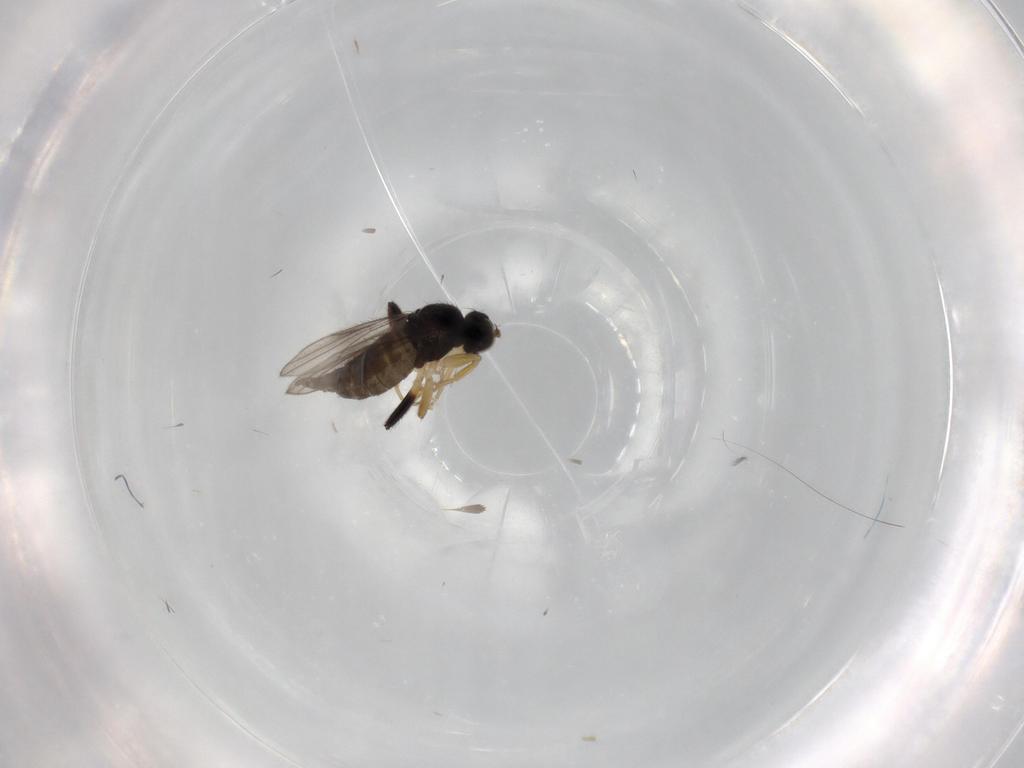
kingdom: Animalia
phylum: Arthropoda
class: Insecta
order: Diptera
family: Hybotidae
